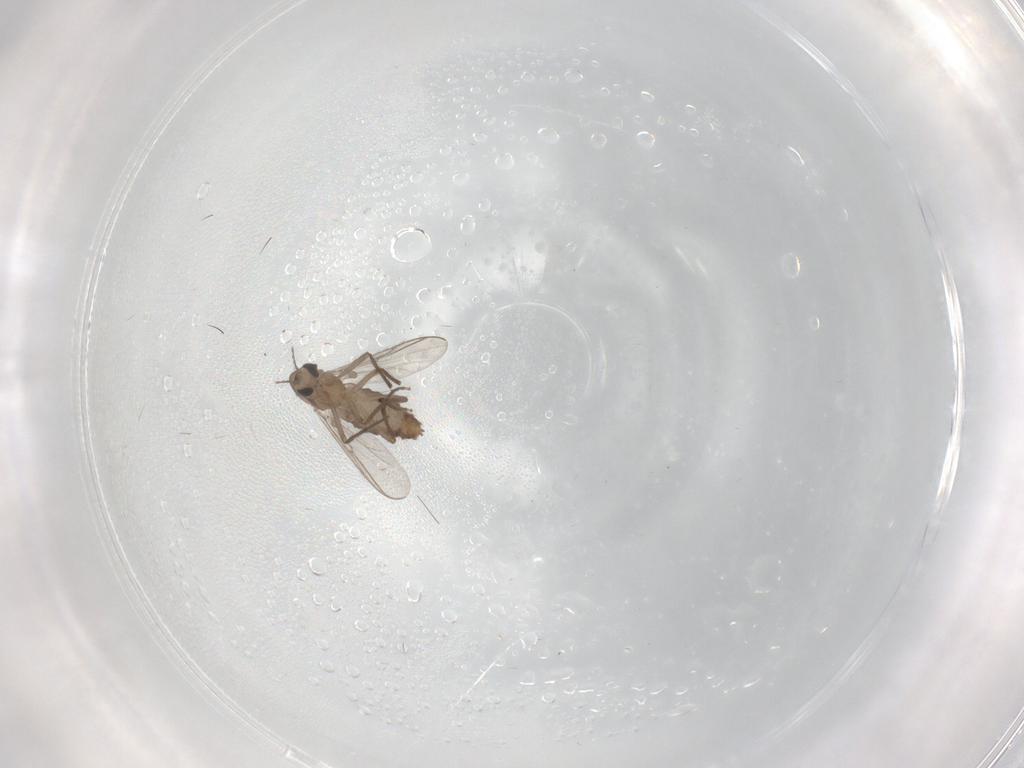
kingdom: Animalia
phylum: Arthropoda
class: Insecta
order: Diptera
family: Chironomidae
